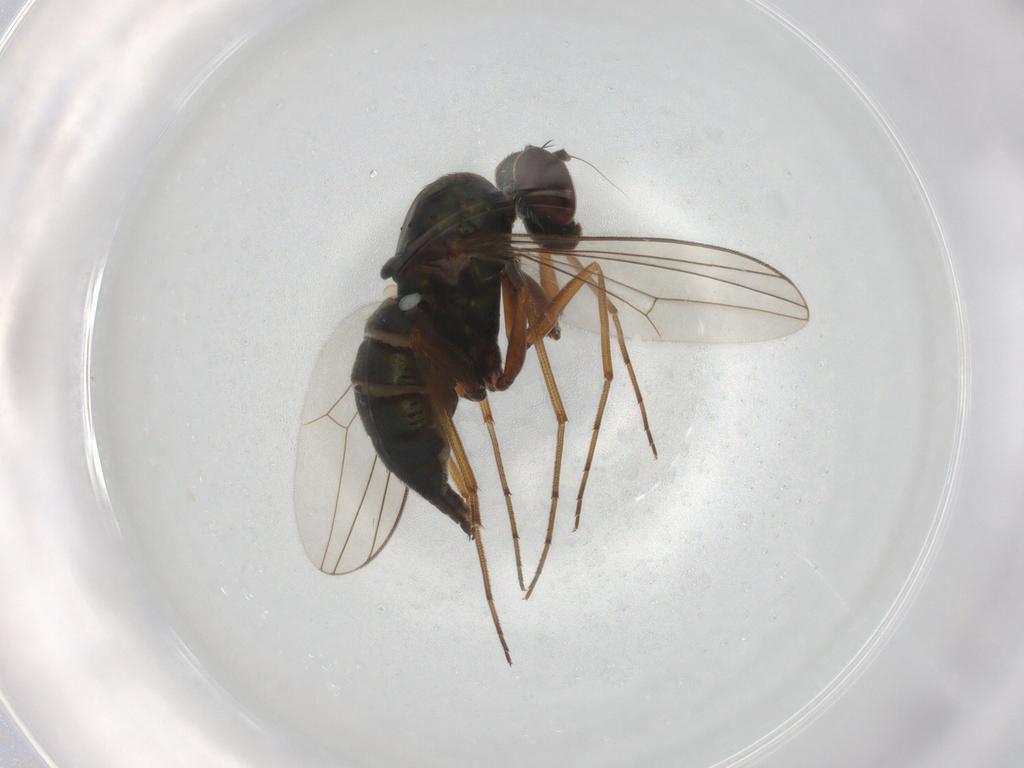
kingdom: Animalia
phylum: Arthropoda
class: Insecta
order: Diptera
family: Dolichopodidae
